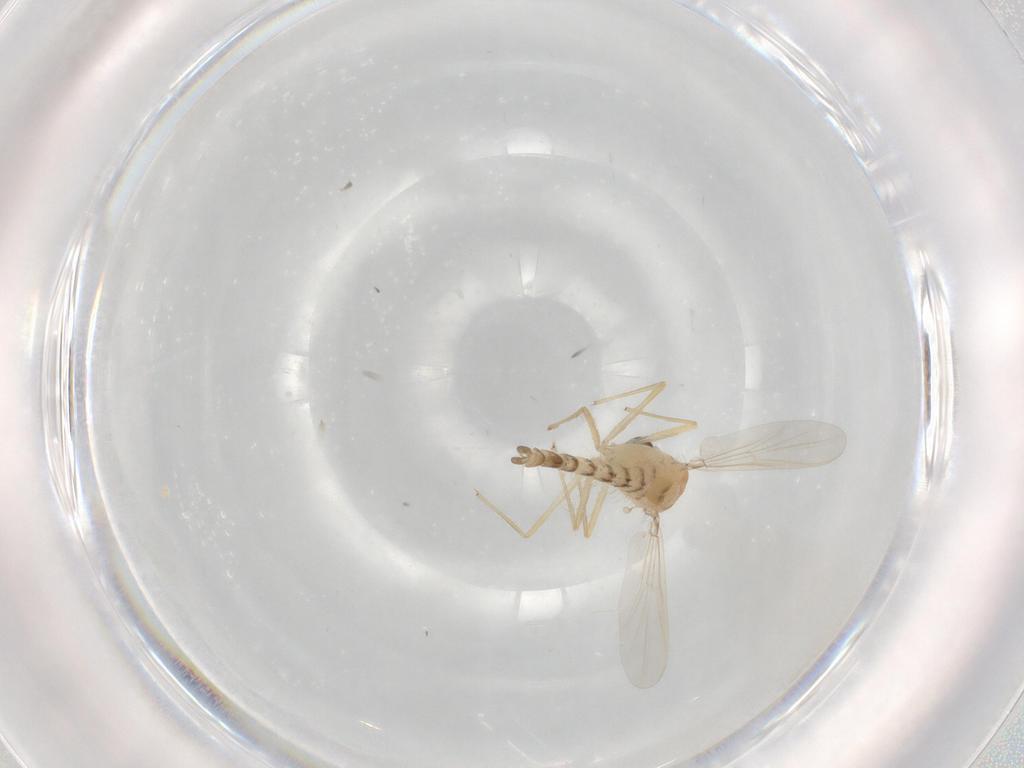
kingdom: Animalia
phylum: Arthropoda
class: Insecta
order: Diptera
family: Chironomidae
